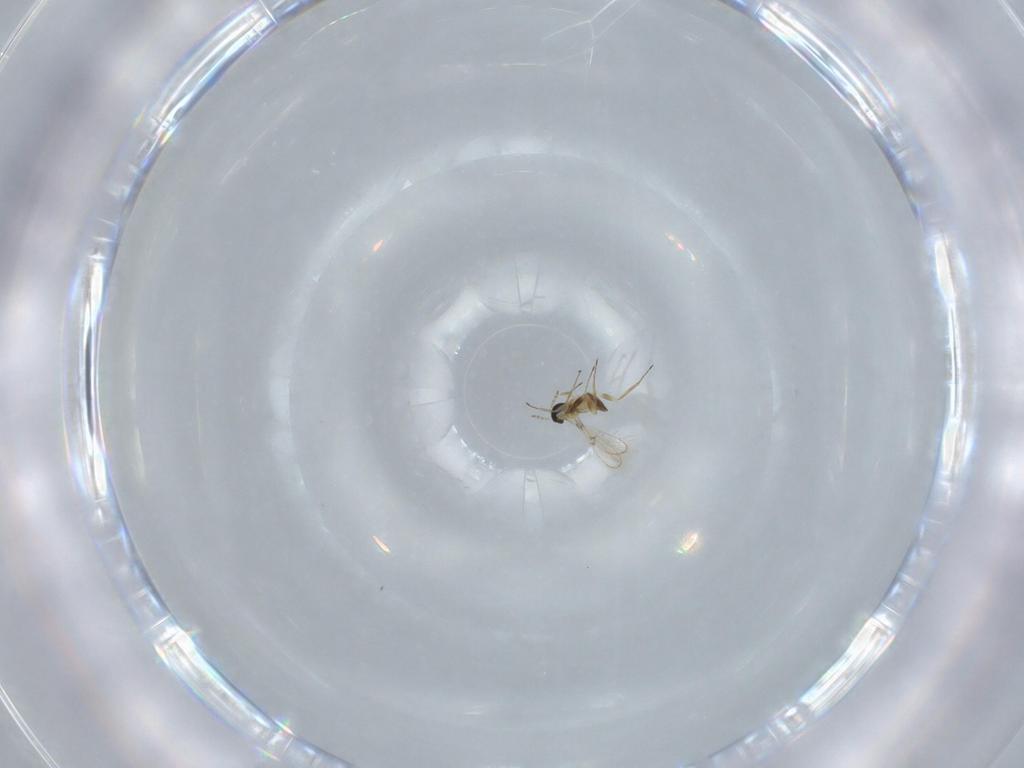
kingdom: Animalia
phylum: Arthropoda
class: Insecta
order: Hymenoptera
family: Trichogrammatidae
